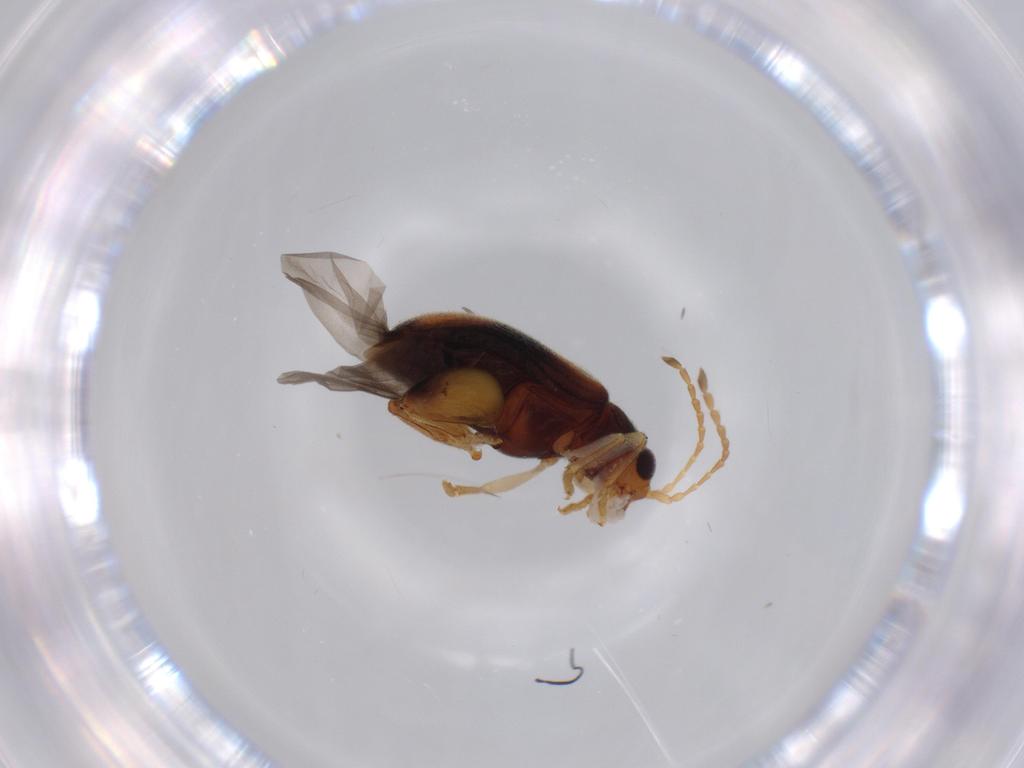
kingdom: Animalia
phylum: Arthropoda
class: Insecta
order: Coleoptera
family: Chrysomelidae
